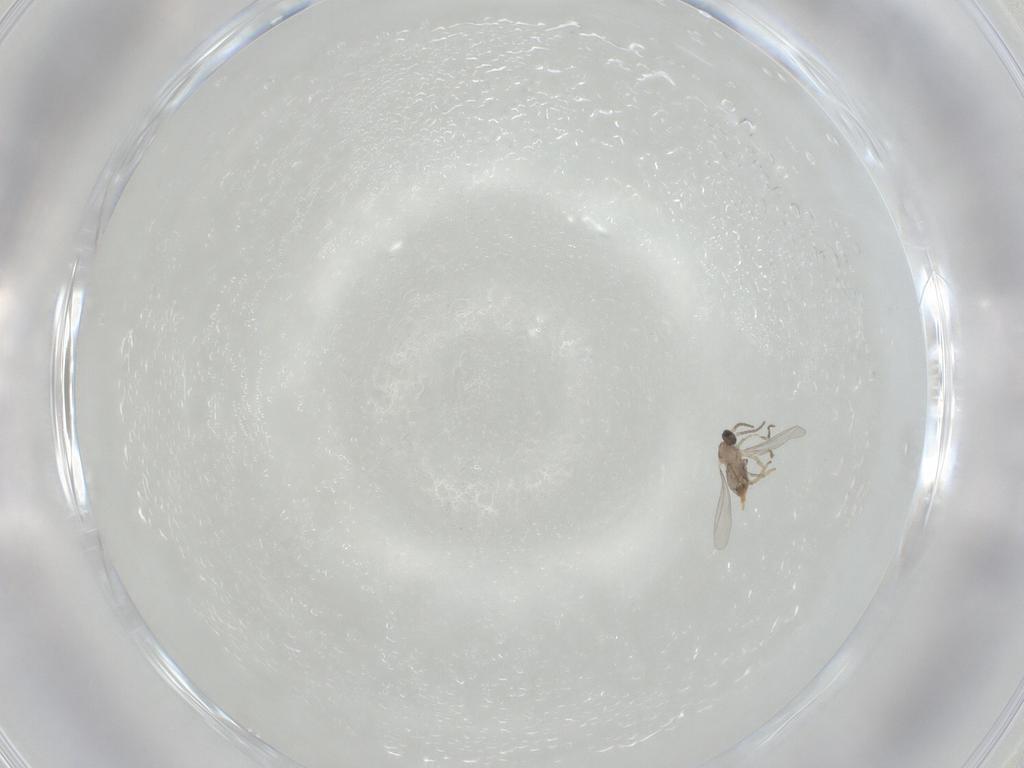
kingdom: Animalia
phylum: Arthropoda
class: Insecta
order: Diptera
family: Cecidomyiidae
